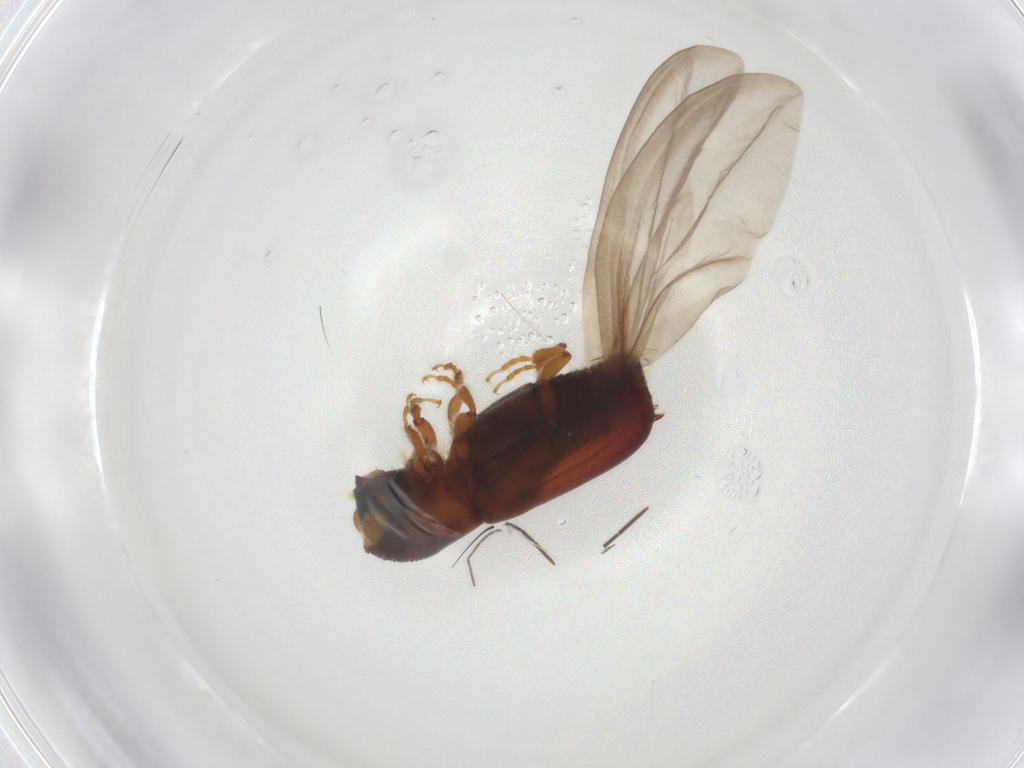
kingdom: Animalia
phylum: Arthropoda
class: Insecta
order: Coleoptera
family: Curculionidae
